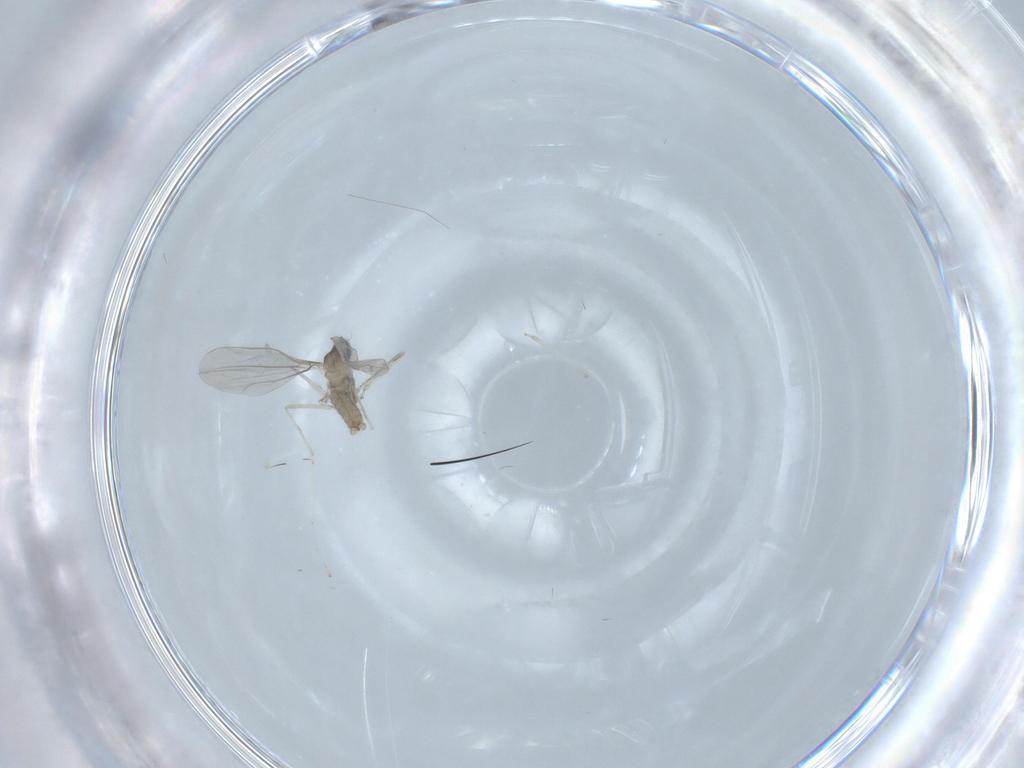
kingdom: Animalia
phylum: Arthropoda
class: Insecta
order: Diptera
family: Cecidomyiidae
